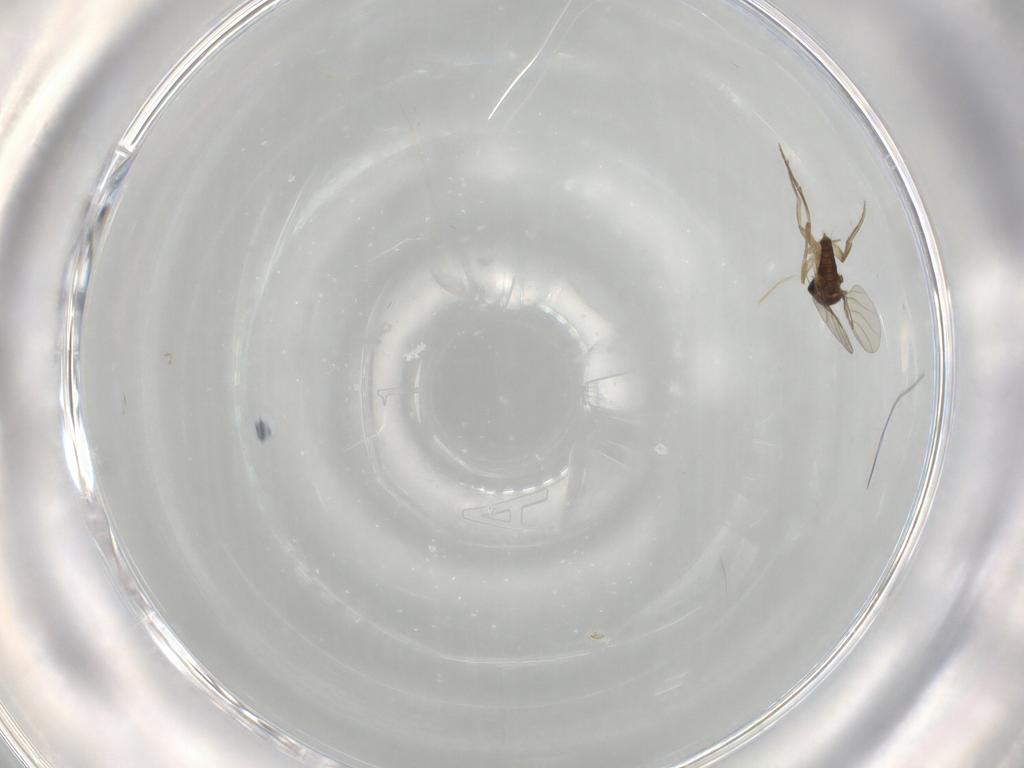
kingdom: Animalia
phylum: Arthropoda
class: Insecta
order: Diptera
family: Phoridae
